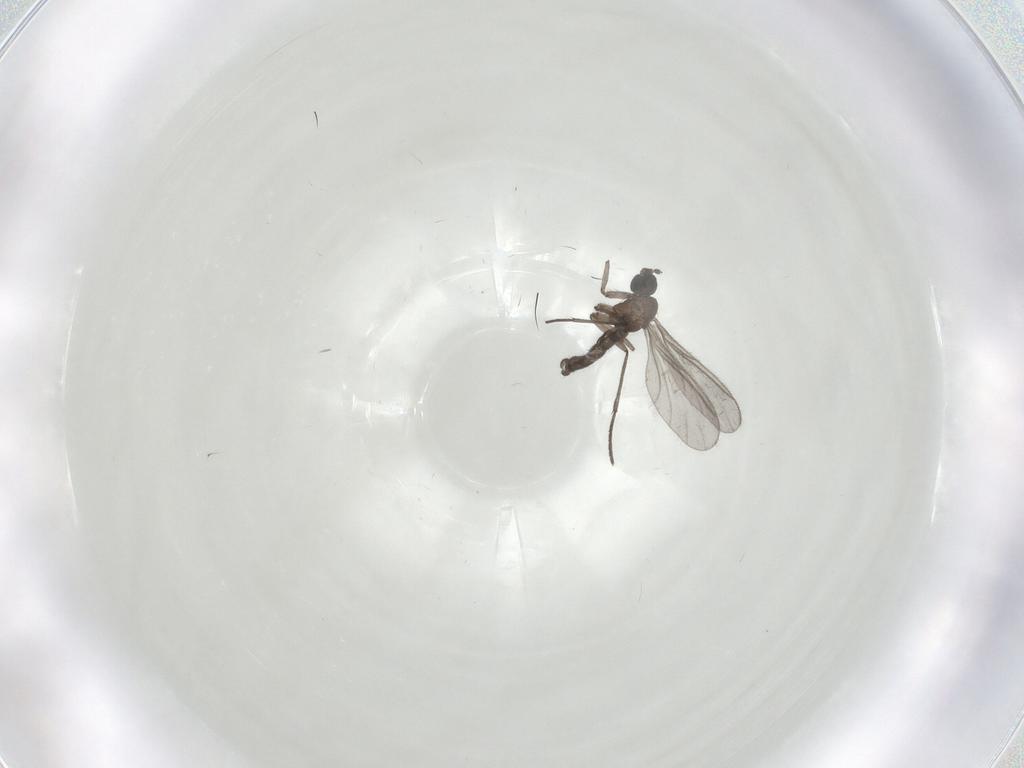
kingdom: Animalia
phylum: Arthropoda
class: Insecta
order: Diptera
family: Cecidomyiidae
